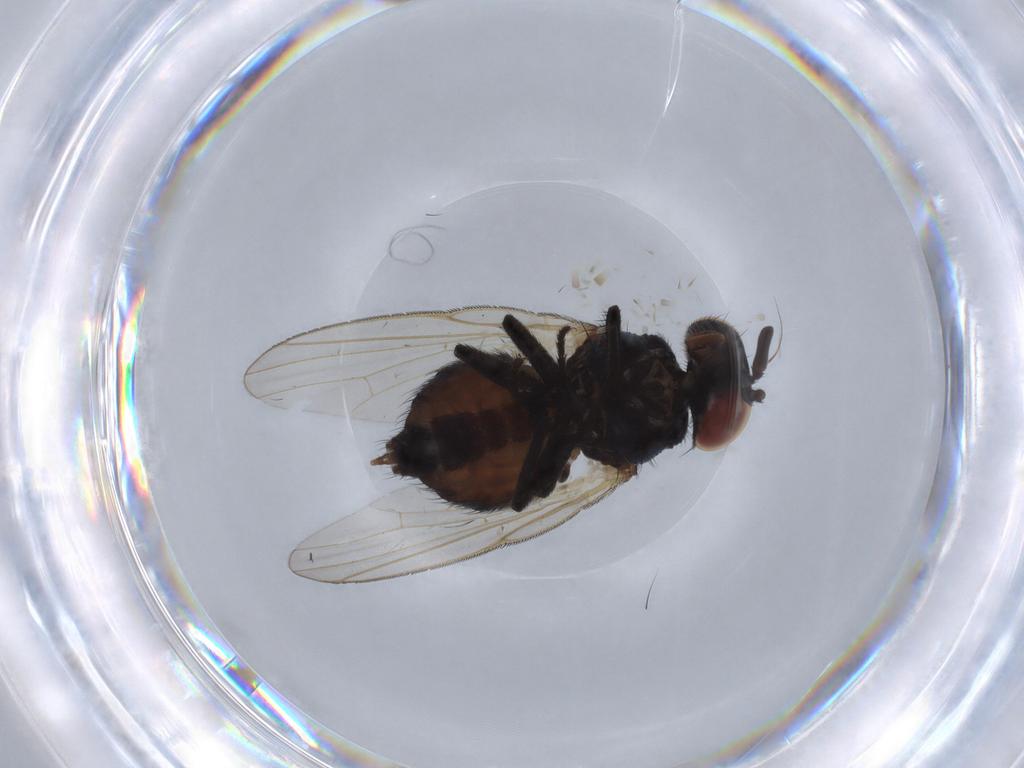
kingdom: Animalia
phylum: Arthropoda
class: Insecta
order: Diptera
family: Lonchaeidae
